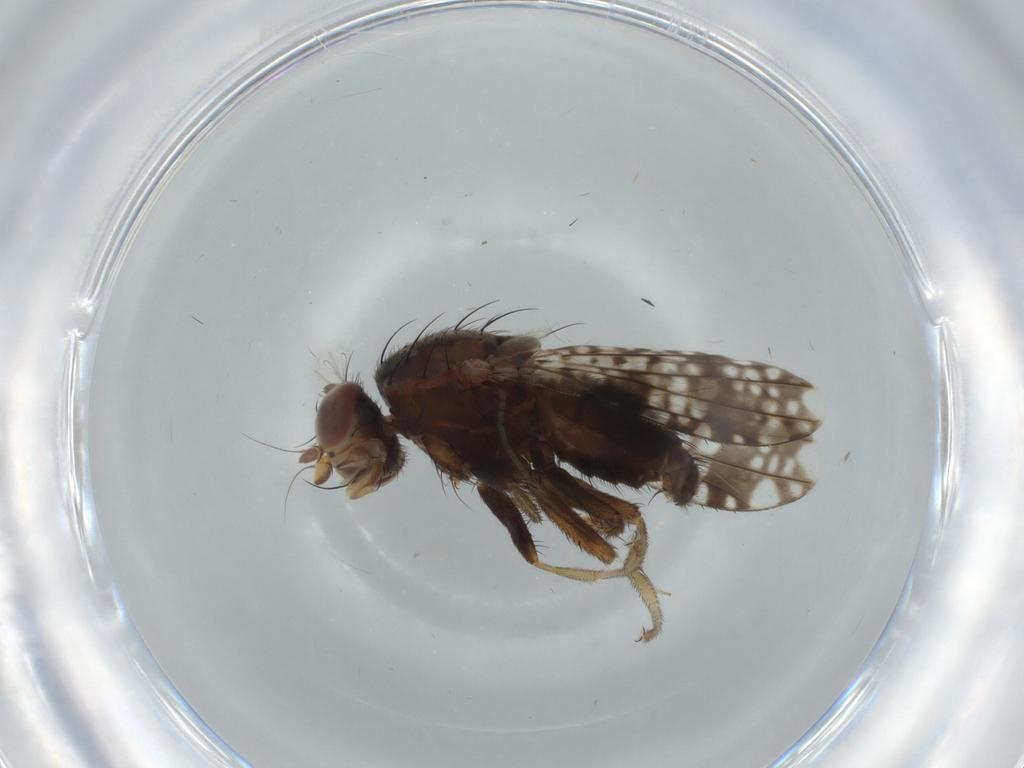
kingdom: Animalia
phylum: Arthropoda
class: Insecta
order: Diptera
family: Tephritidae
